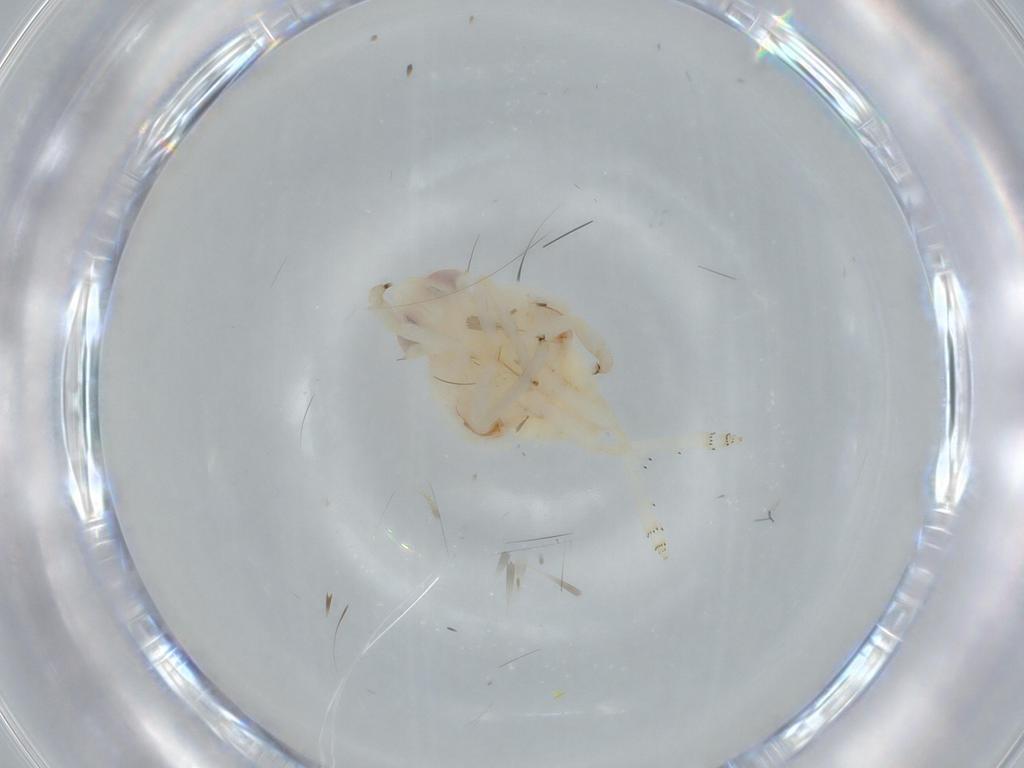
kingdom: Animalia
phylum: Arthropoda
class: Insecta
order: Hemiptera
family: Nogodinidae
